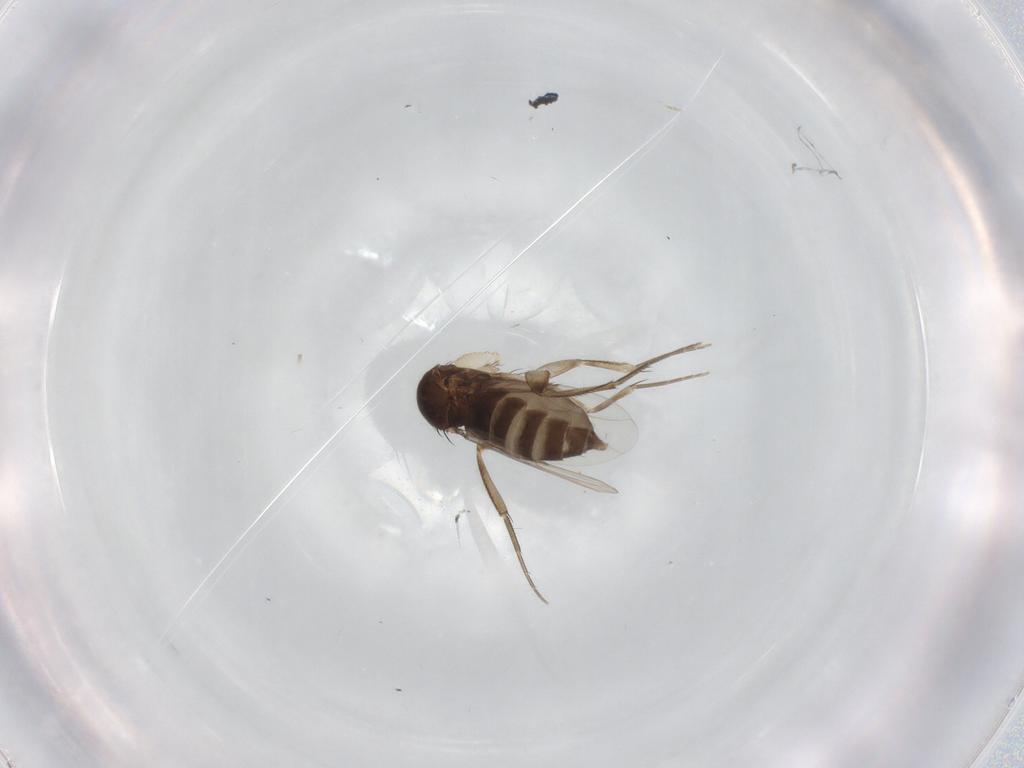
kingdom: Animalia
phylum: Arthropoda
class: Insecta
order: Diptera
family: Phoridae
